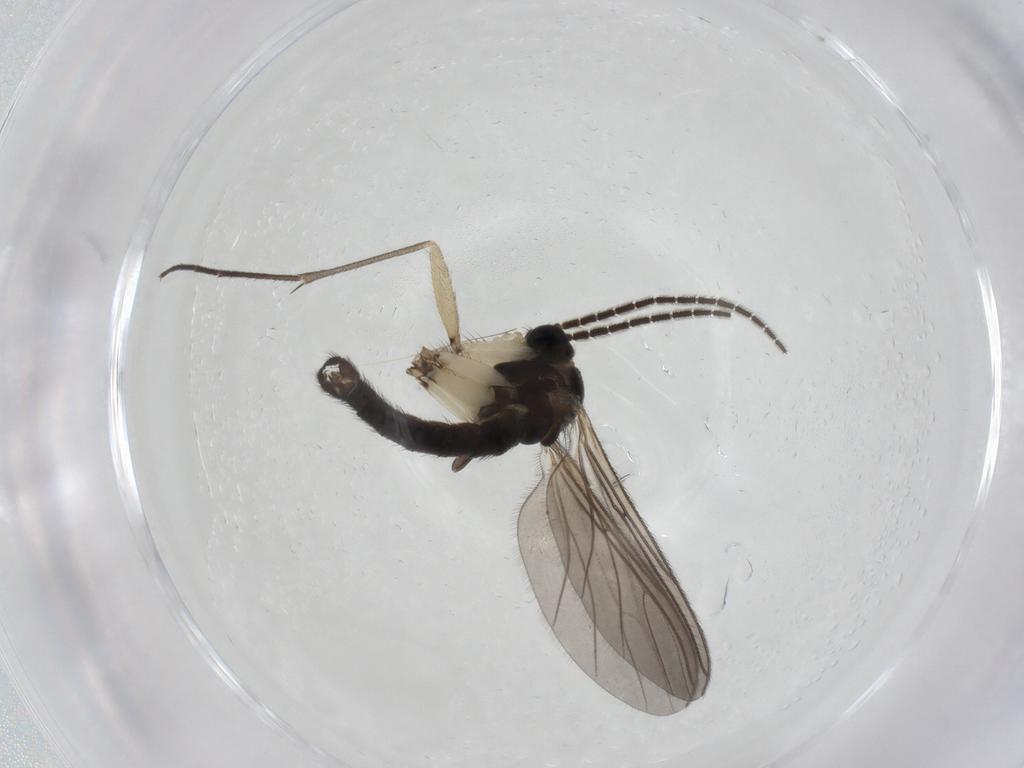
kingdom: Animalia
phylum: Arthropoda
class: Insecta
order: Diptera
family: Sciaridae
